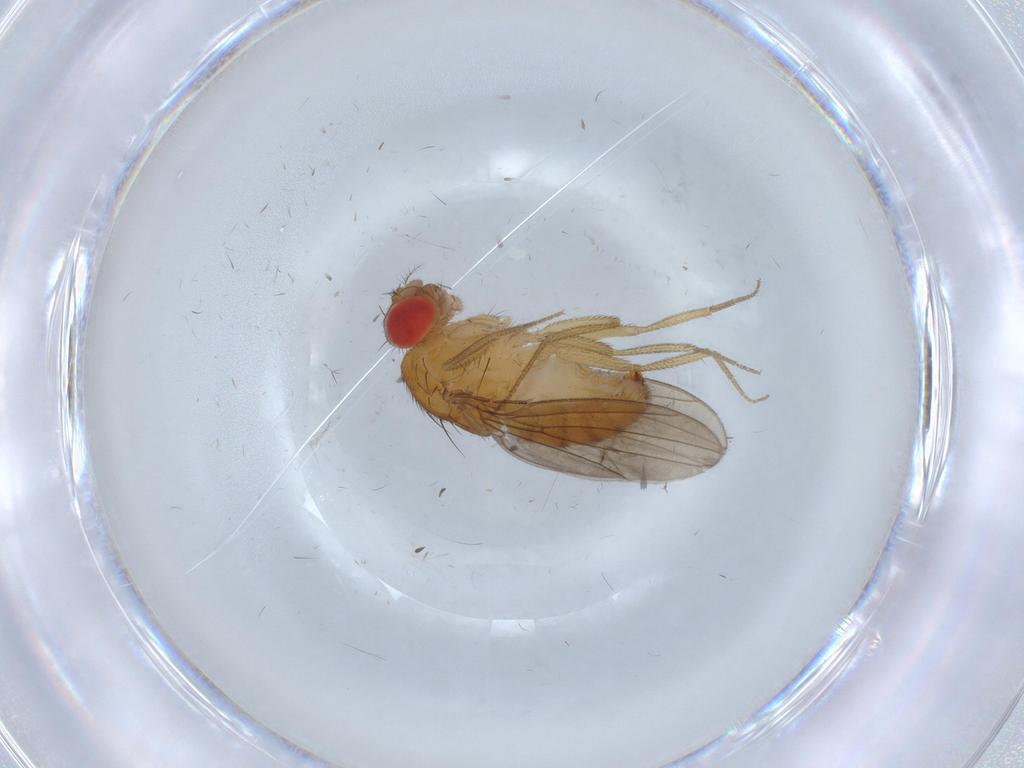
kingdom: Animalia
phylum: Arthropoda
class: Insecta
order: Diptera
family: Drosophilidae
